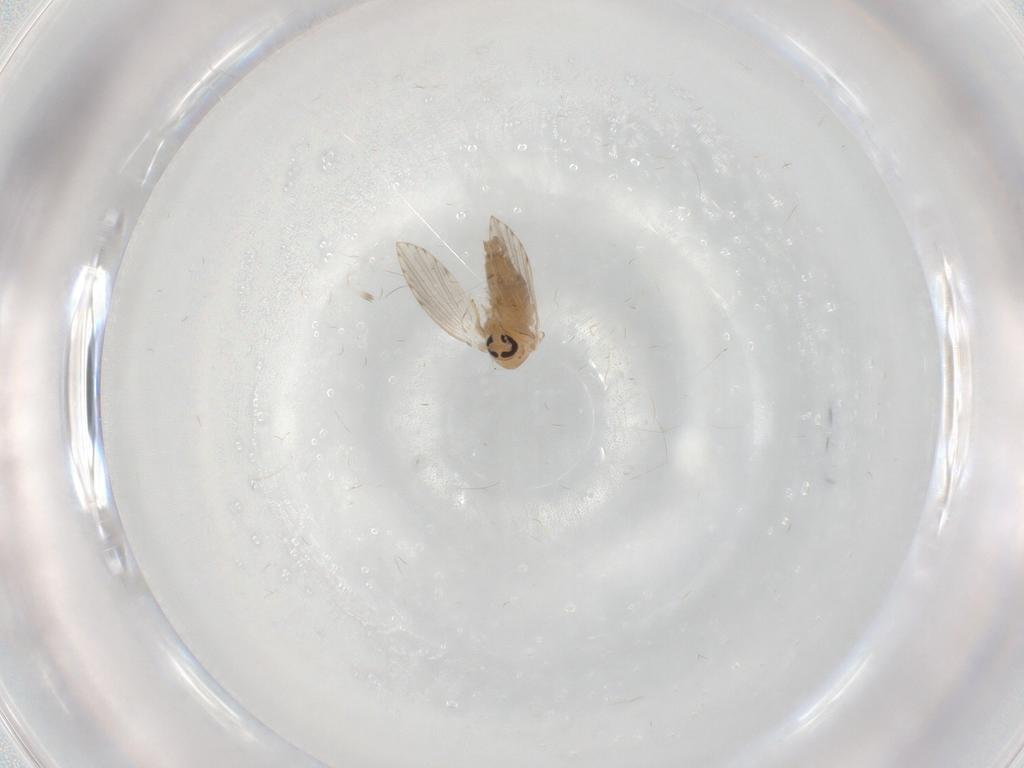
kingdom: Animalia
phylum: Arthropoda
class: Insecta
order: Diptera
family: Psychodidae
